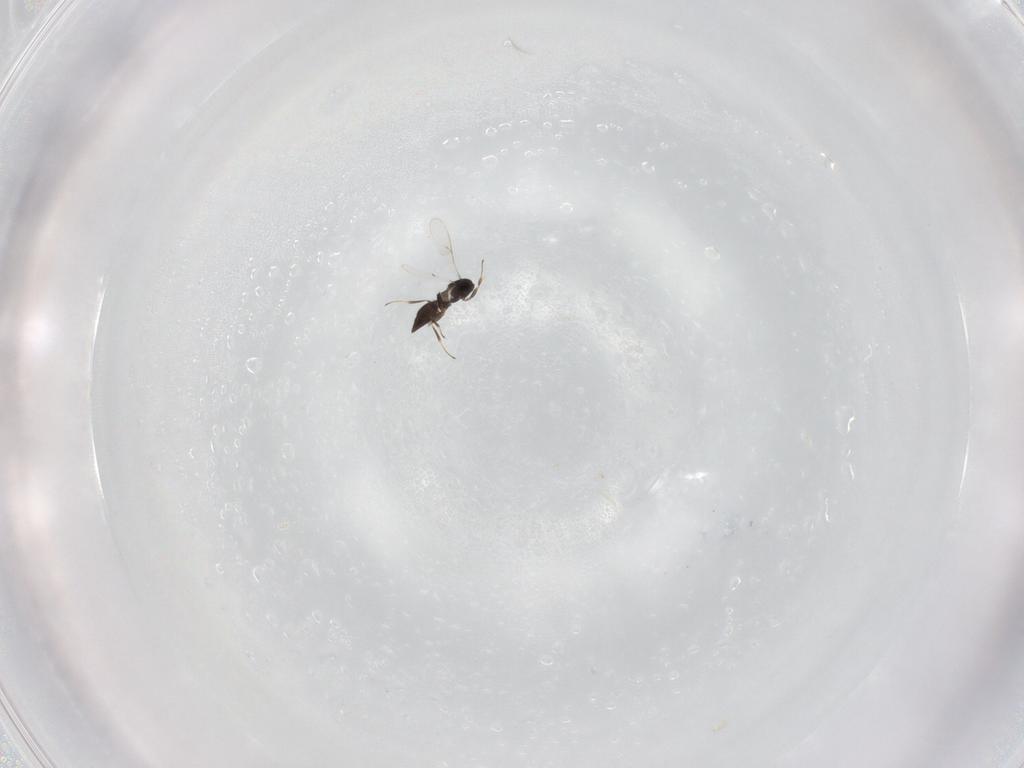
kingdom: Animalia
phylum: Arthropoda
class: Insecta
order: Hymenoptera
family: Scelionidae
